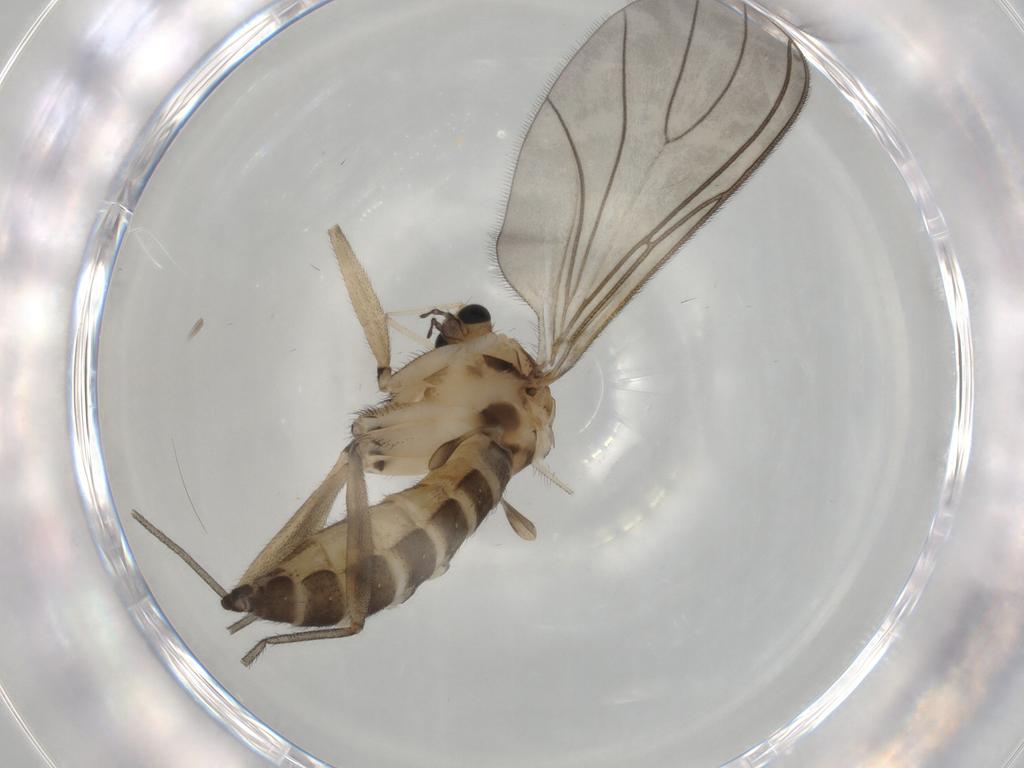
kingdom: Animalia
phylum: Arthropoda
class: Insecta
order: Diptera
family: Sciaridae
